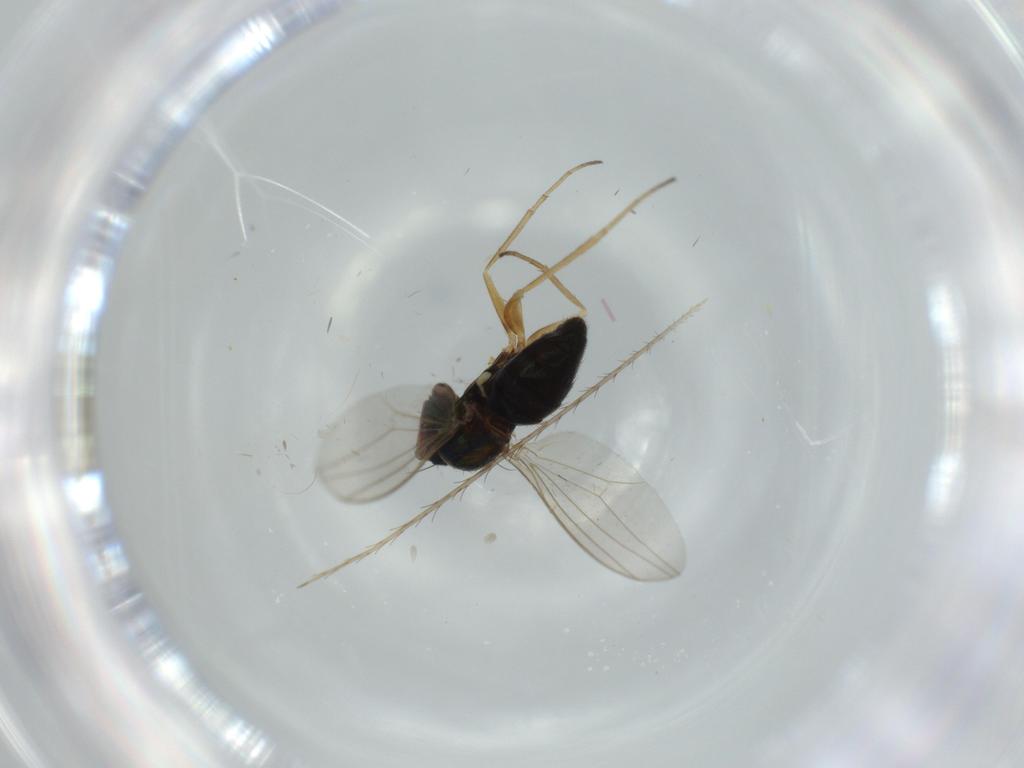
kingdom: Animalia
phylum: Arthropoda
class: Insecta
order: Diptera
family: Dolichopodidae
